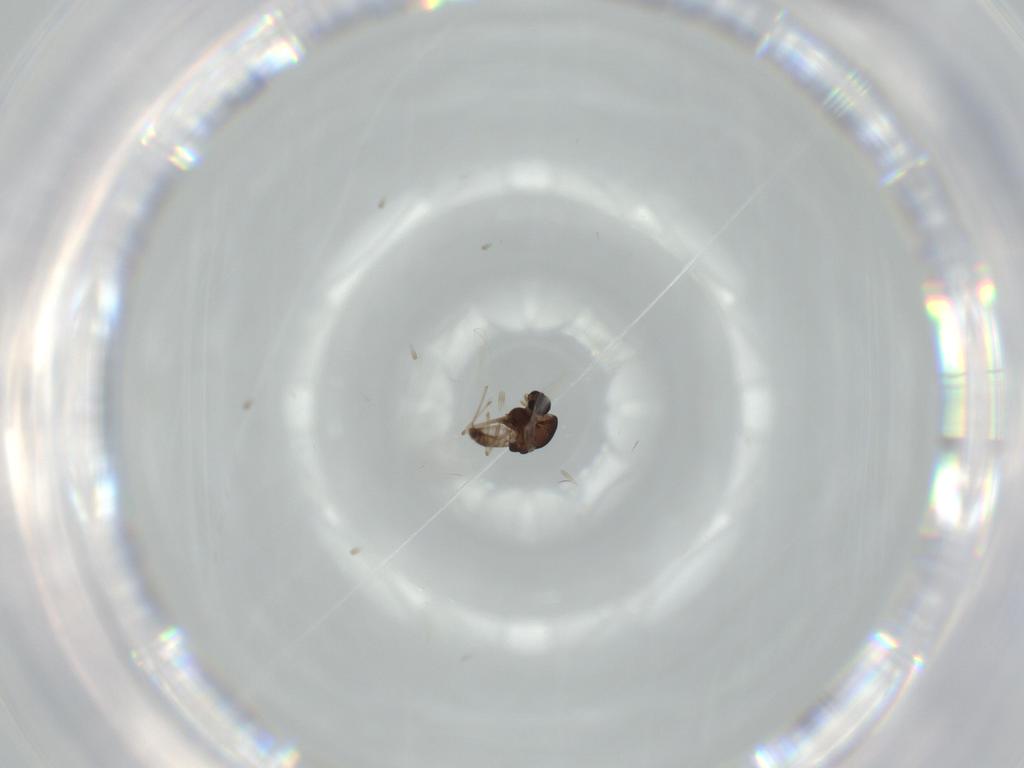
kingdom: Animalia
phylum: Arthropoda
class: Insecta
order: Diptera
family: Chironomidae
